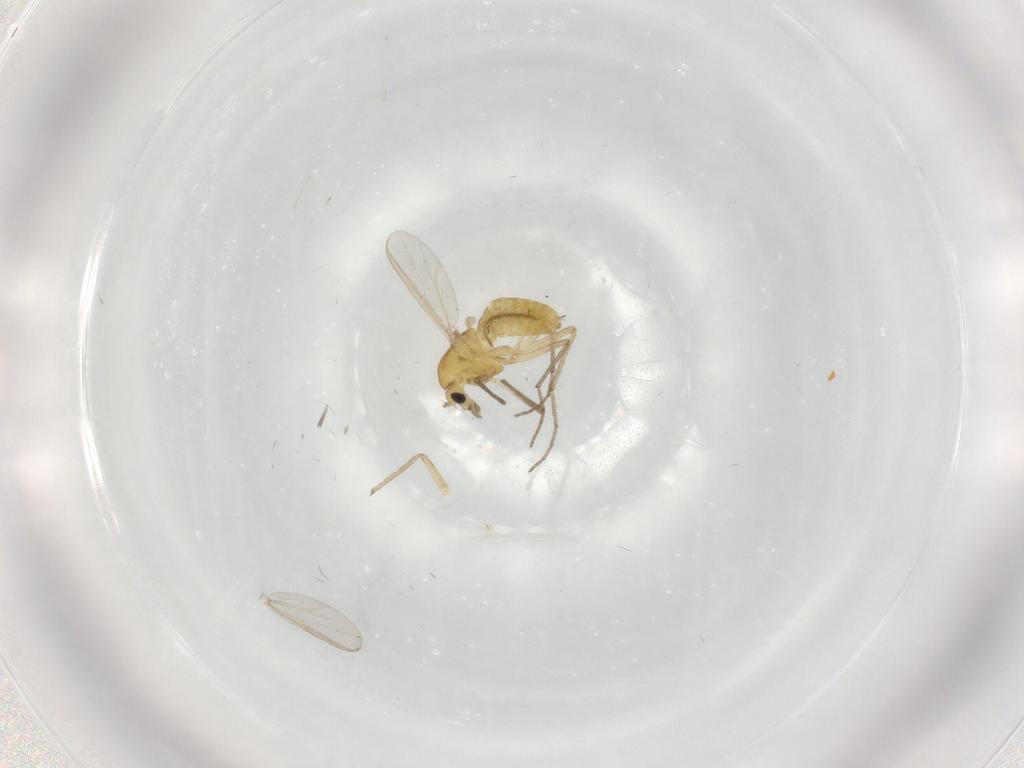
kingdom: Animalia
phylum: Arthropoda
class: Insecta
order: Diptera
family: Chironomidae
